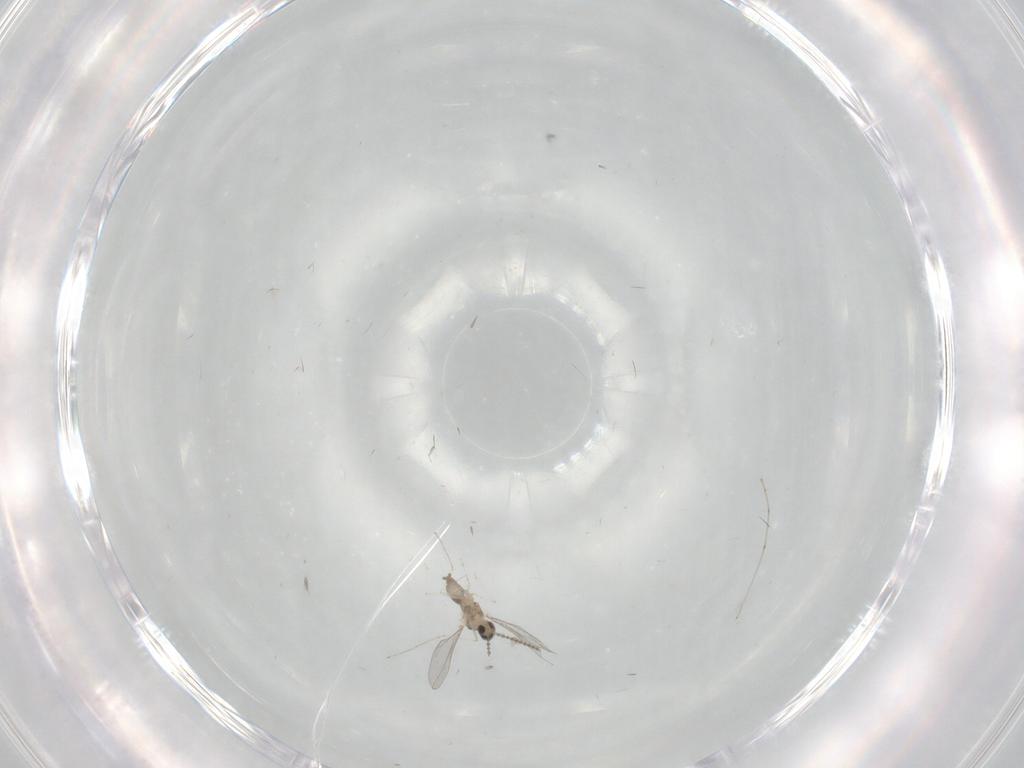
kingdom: Animalia
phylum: Arthropoda
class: Insecta
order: Diptera
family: Cecidomyiidae
